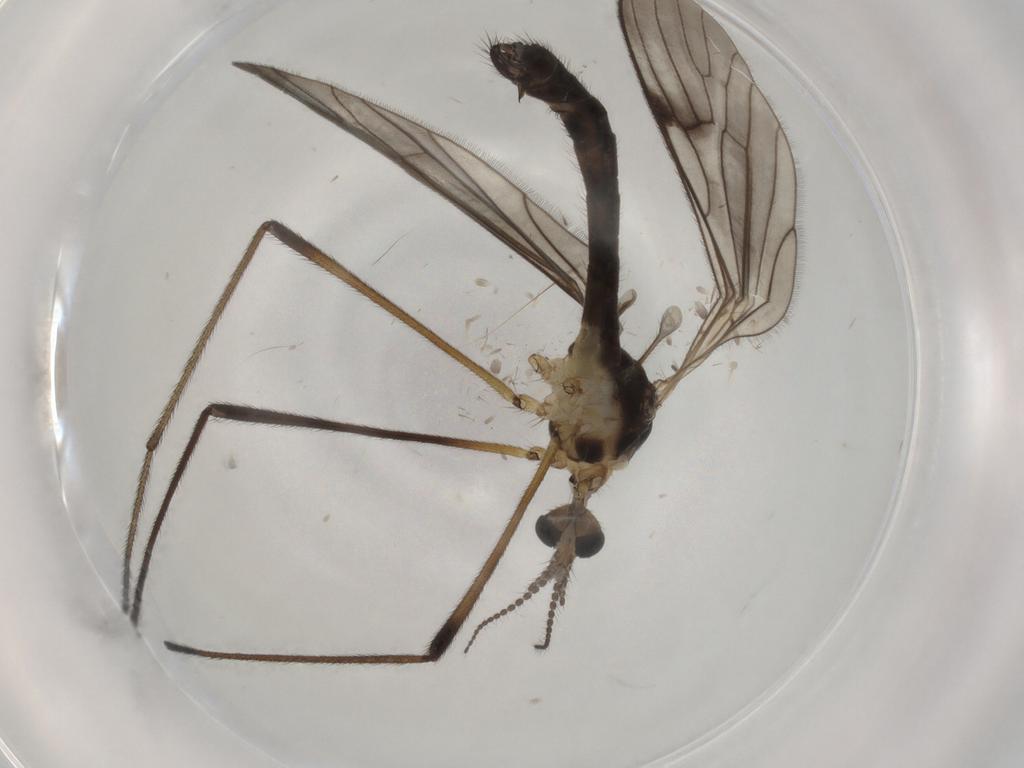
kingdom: Animalia
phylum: Arthropoda
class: Insecta
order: Diptera
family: Limoniidae
